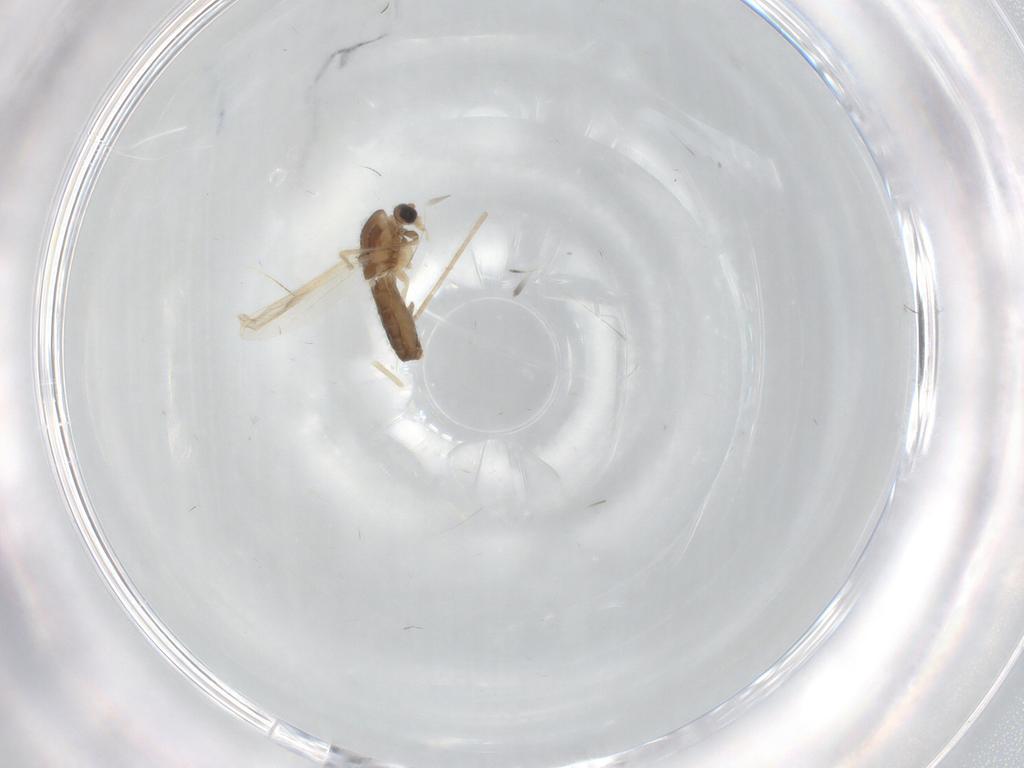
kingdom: Animalia
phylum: Arthropoda
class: Insecta
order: Diptera
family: Chironomidae
